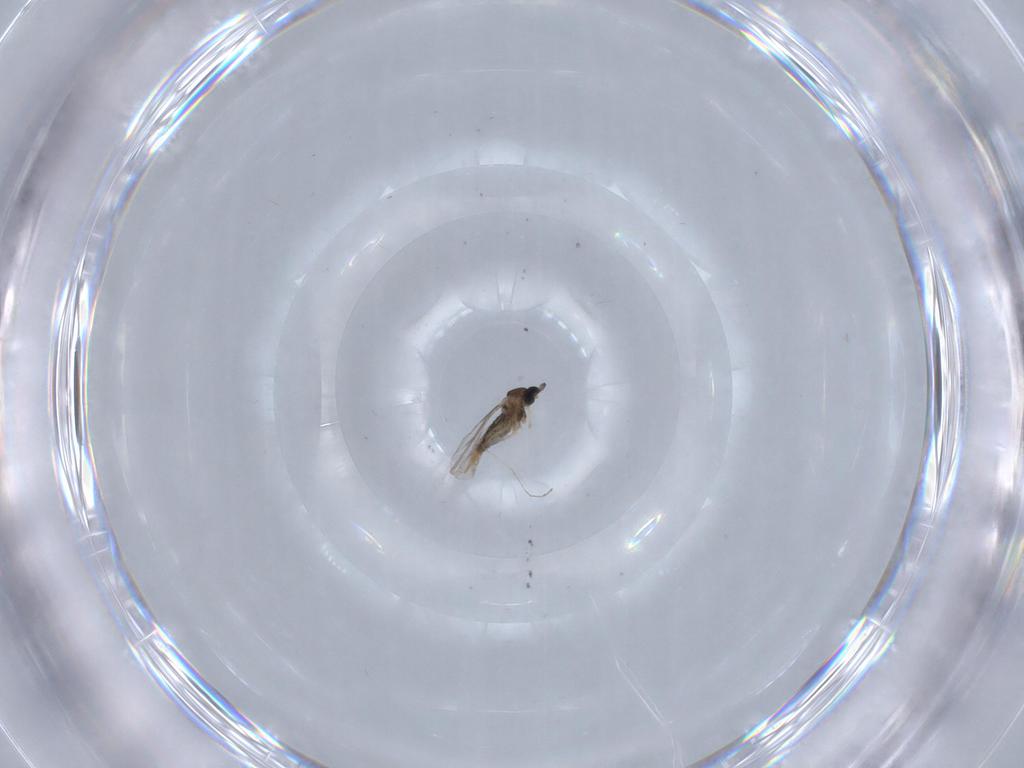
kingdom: Animalia
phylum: Arthropoda
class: Insecta
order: Diptera
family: Cecidomyiidae
